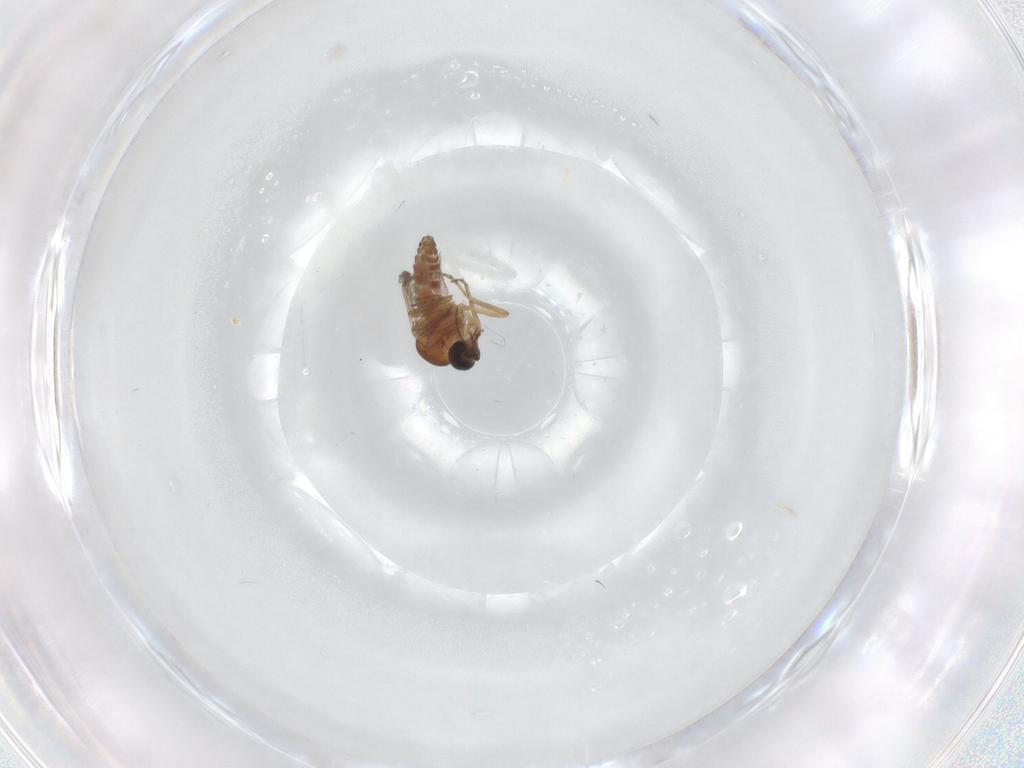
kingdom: Animalia
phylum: Arthropoda
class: Insecta
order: Diptera
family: Ceratopogonidae
